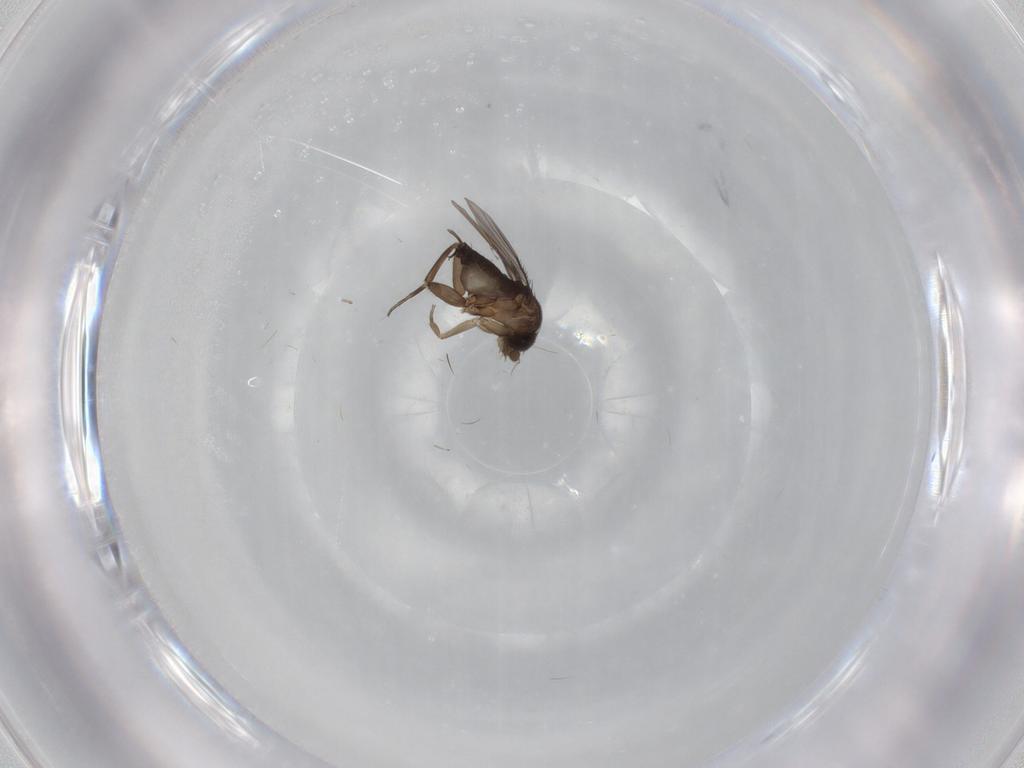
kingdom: Animalia
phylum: Arthropoda
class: Insecta
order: Diptera
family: Phoridae
